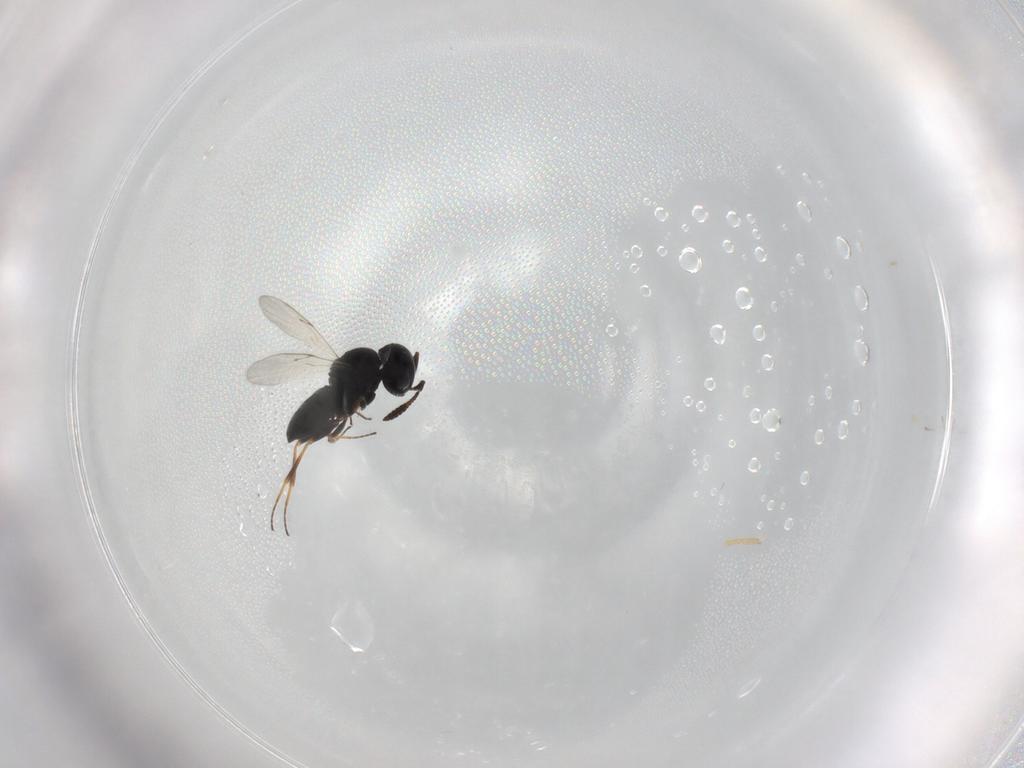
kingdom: Animalia
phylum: Arthropoda
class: Insecta
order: Hymenoptera
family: Scelionidae
